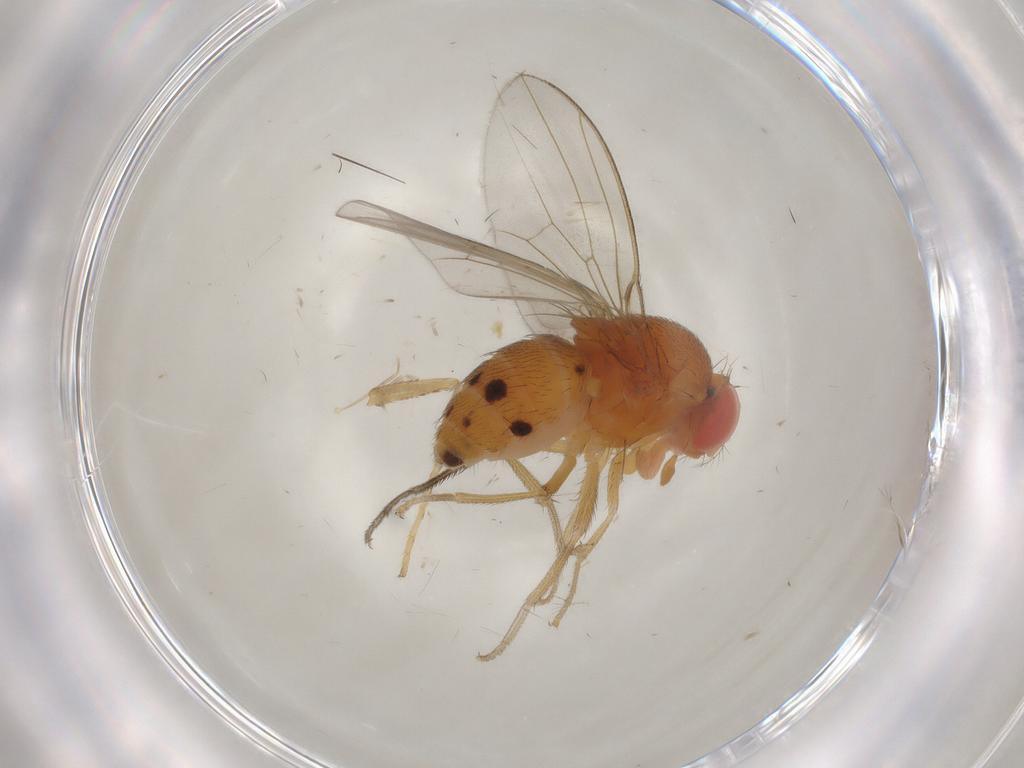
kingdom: Animalia
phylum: Arthropoda
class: Insecta
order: Diptera
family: Drosophilidae
